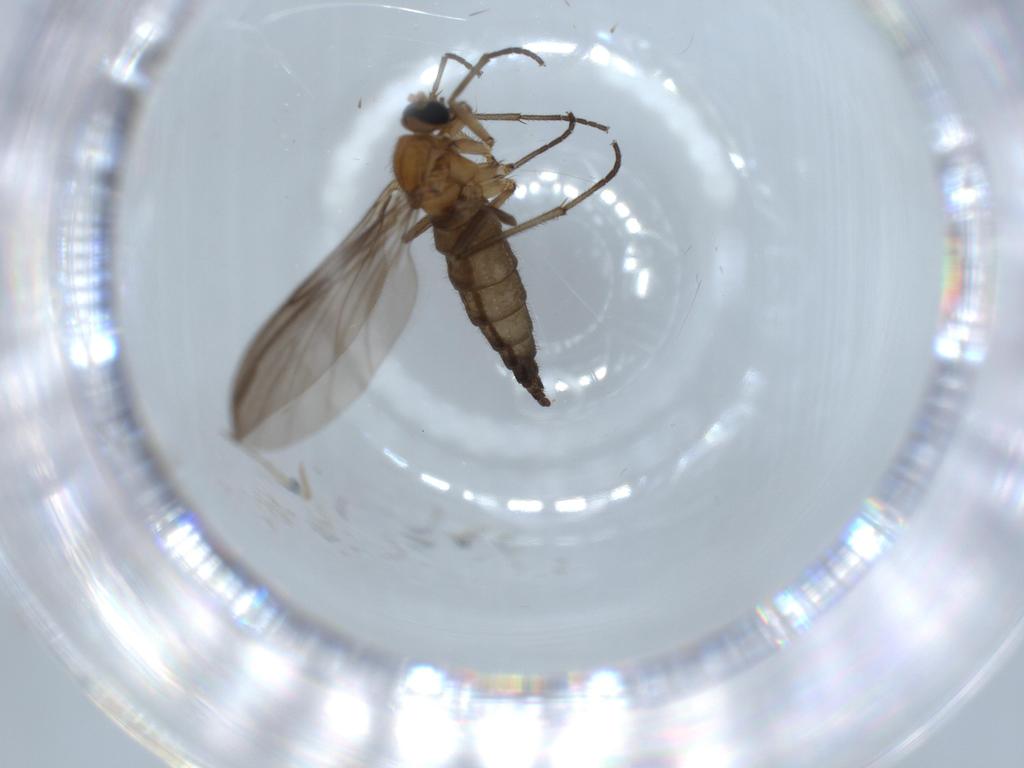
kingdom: Animalia
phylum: Arthropoda
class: Insecta
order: Diptera
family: Sciaridae
